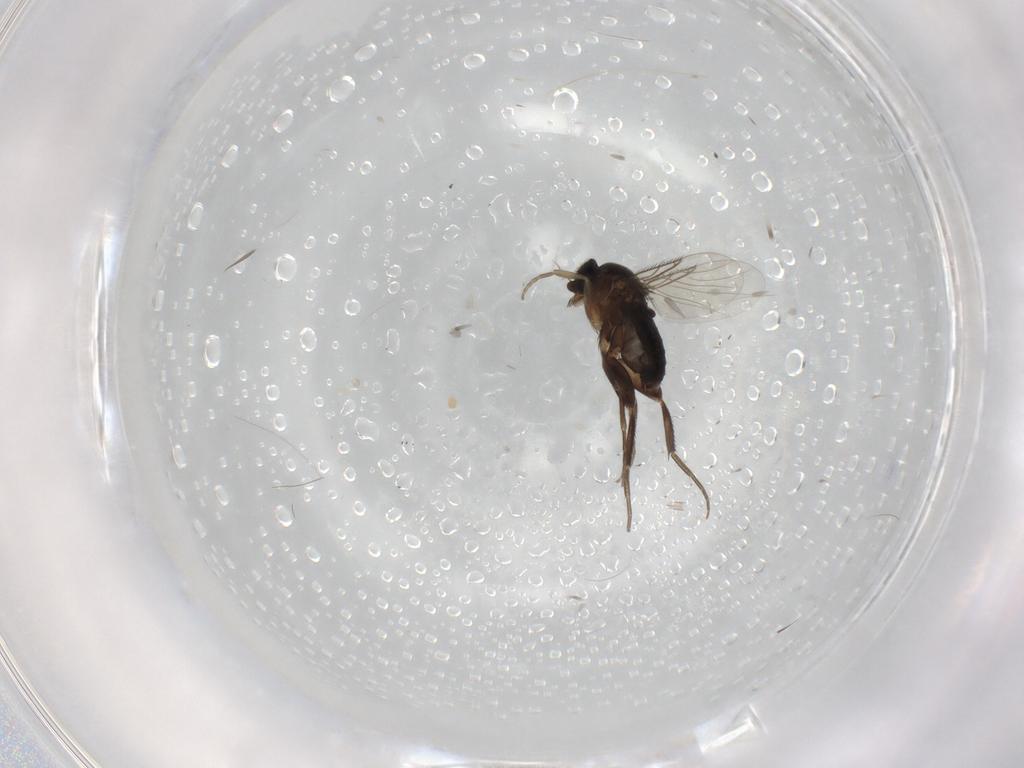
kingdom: Animalia
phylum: Arthropoda
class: Insecta
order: Diptera
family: Phoridae
